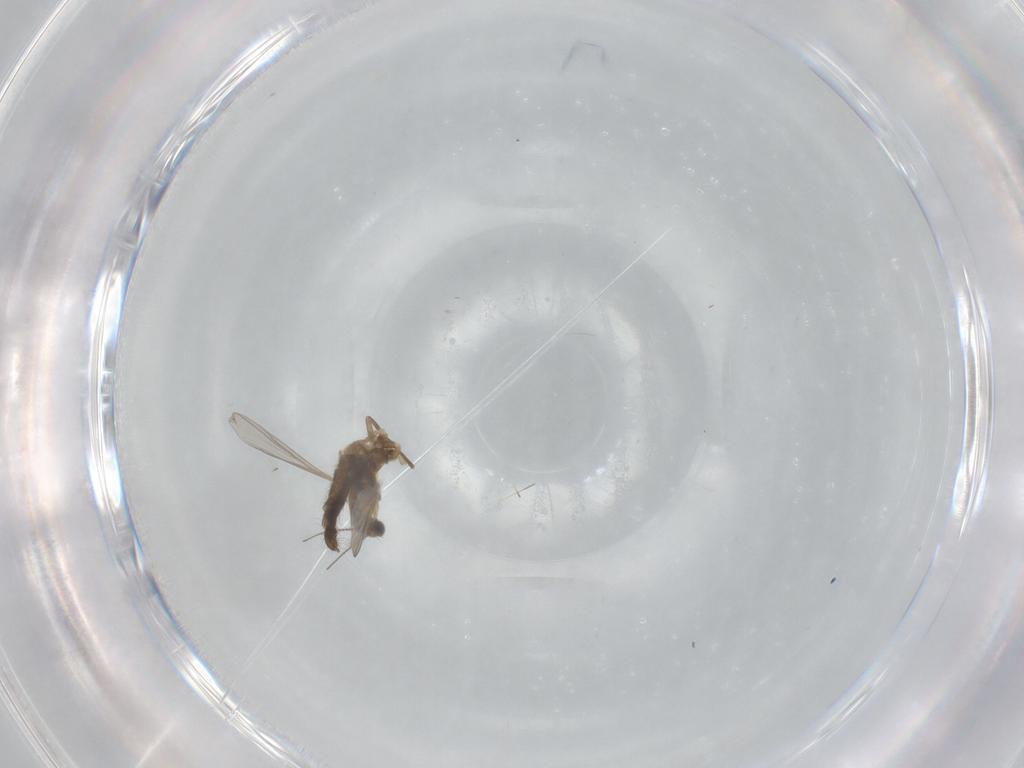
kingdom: Animalia
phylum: Arthropoda
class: Insecta
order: Diptera
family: Chironomidae
